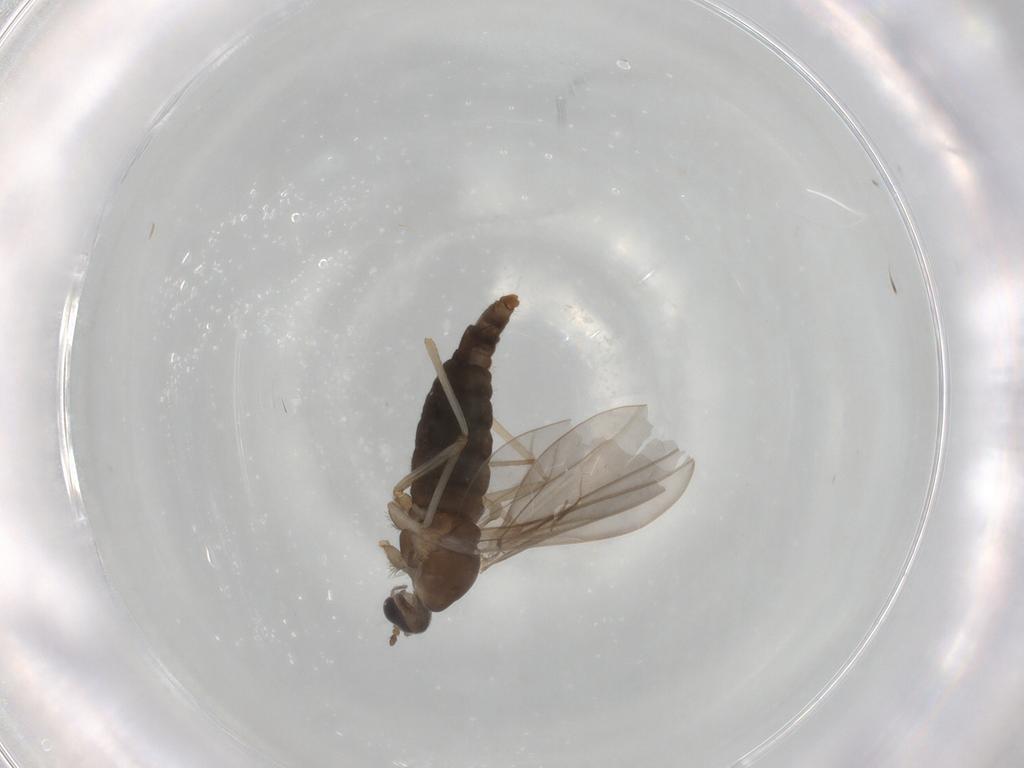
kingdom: Animalia
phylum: Arthropoda
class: Insecta
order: Diptera
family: Cecidomyiidae
